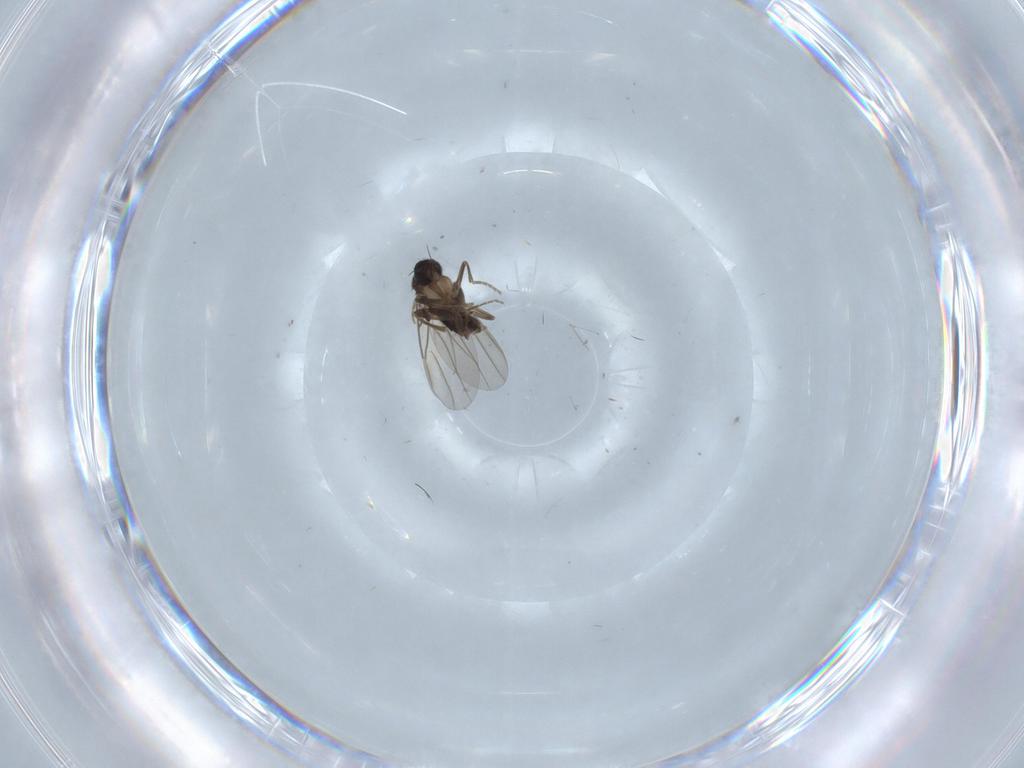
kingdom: Animalia
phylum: Arthropoda
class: Insecta
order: Diptera
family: Phoridae
